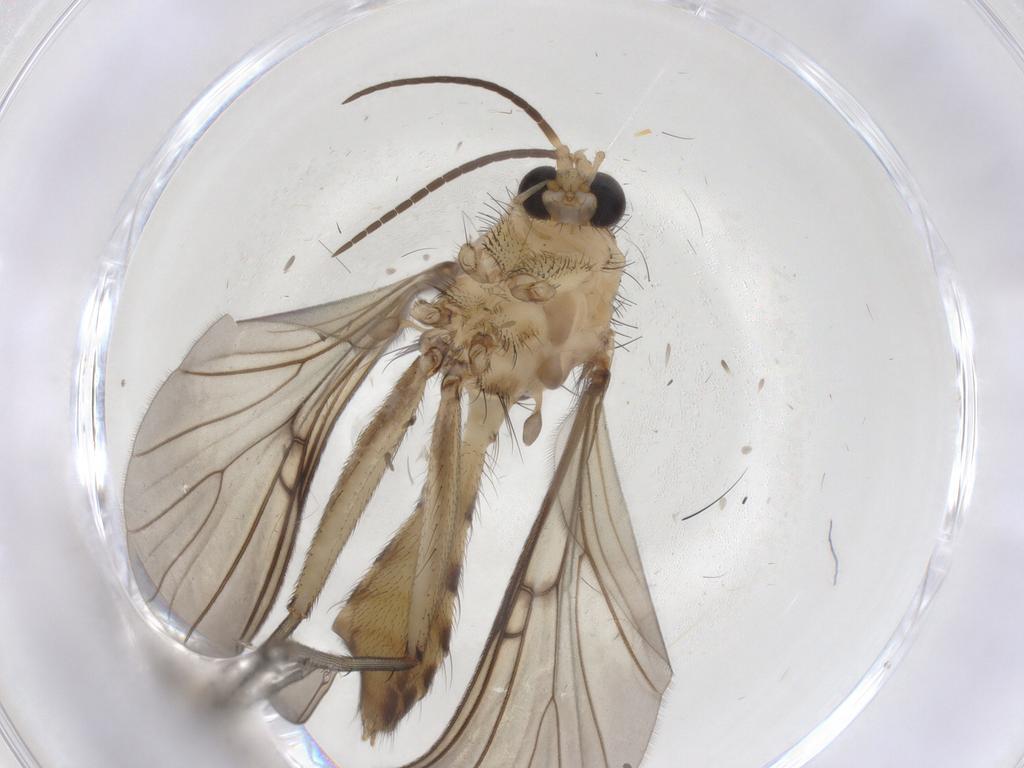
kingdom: Animalia
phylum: Arthropoda
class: Insecta
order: Diptera
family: Mycetophilidae
